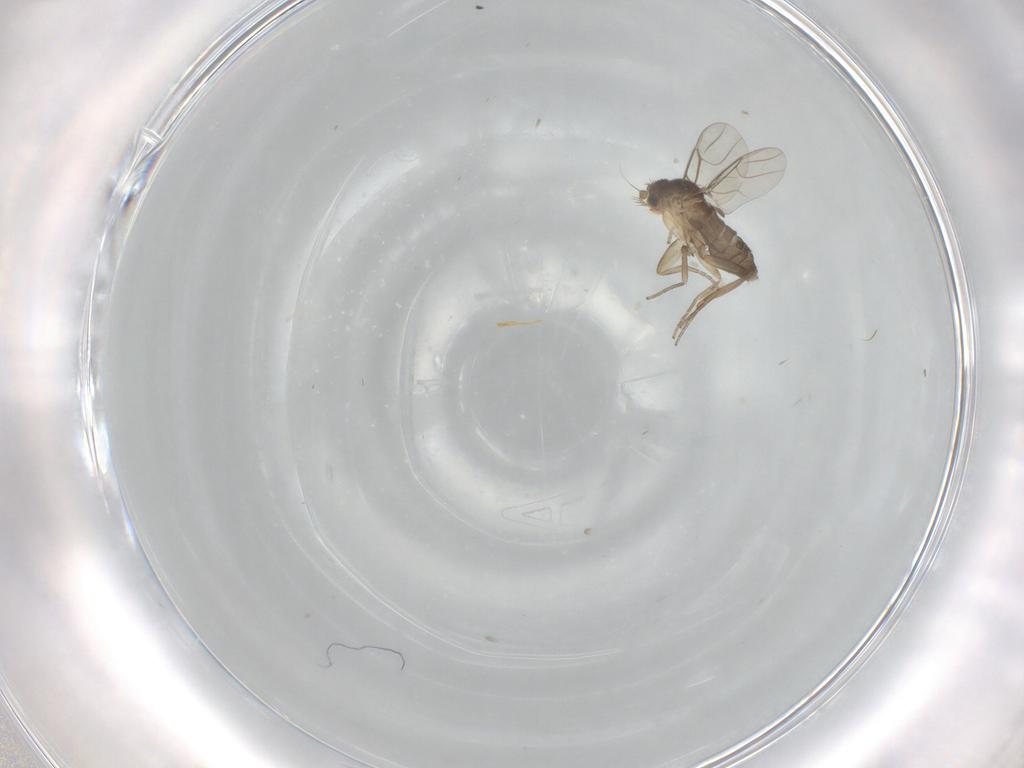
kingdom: Animalia
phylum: Arthropoda
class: Insecta
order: Diptera
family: Phoridae
